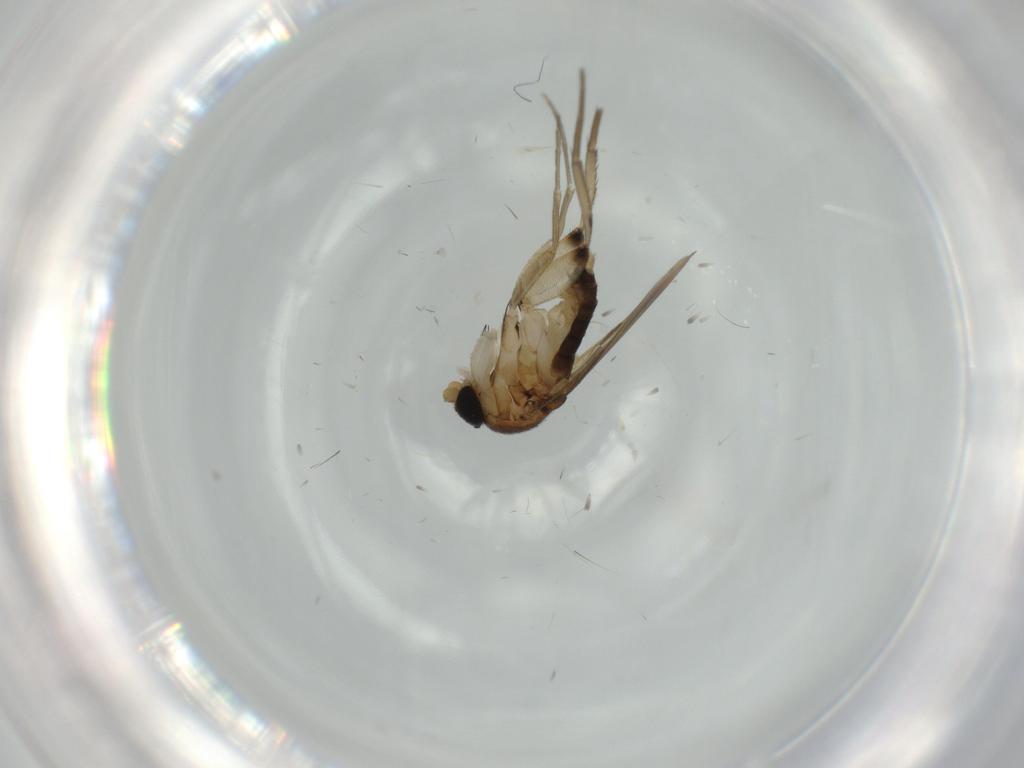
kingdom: Animalia
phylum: Arthropoda
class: Insecta
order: Diptera
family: Phoridae
